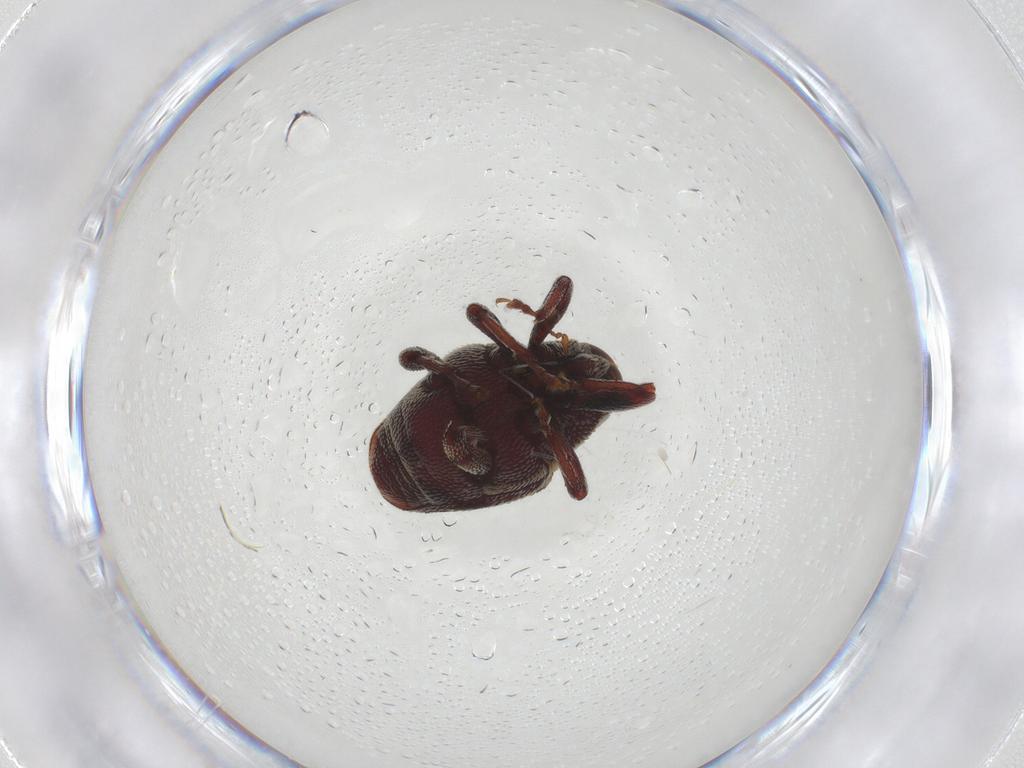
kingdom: Animalia
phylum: Arthropoda
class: Insecta
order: Coleoptera
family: Curculionidae
